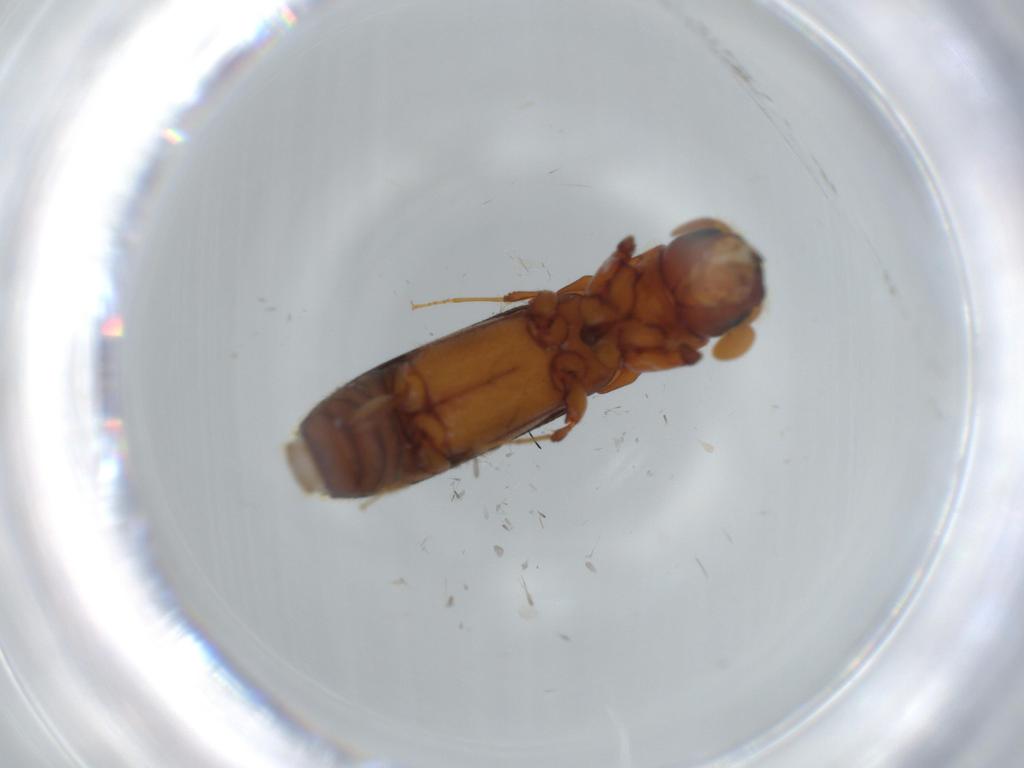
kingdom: Animalia
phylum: Arthropoda
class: Insecta
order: Coleoptera
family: Curculionidae
